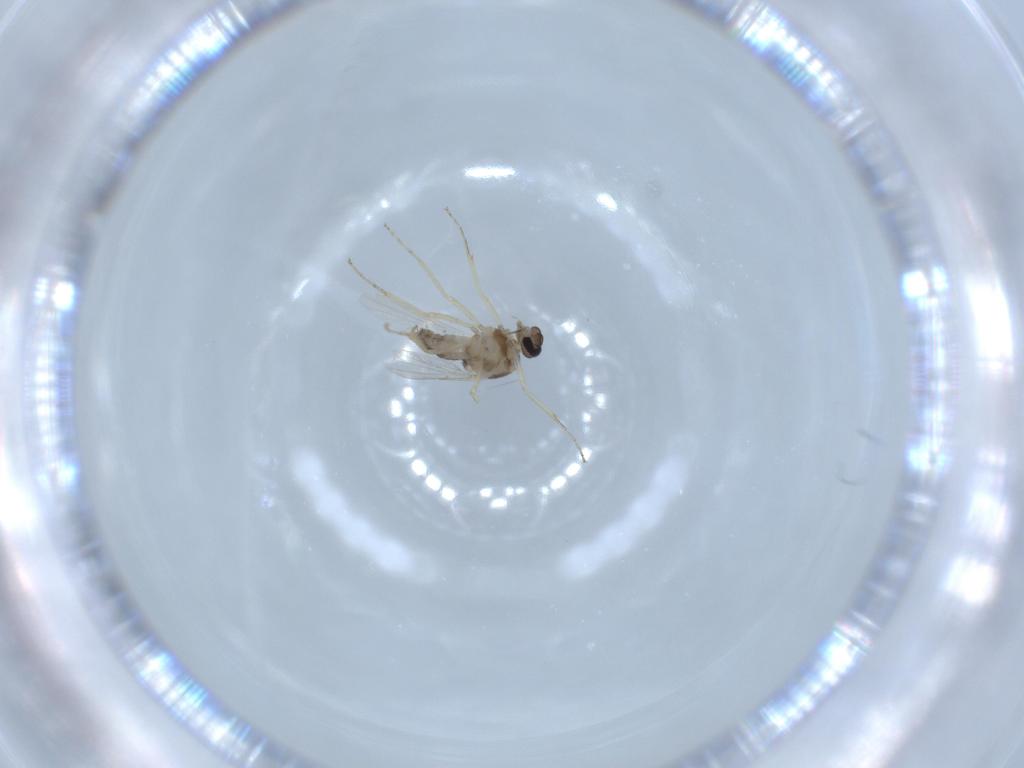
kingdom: Animalia
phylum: Arthropoda
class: Insecta
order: Diptera
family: Ceratopogonidae
